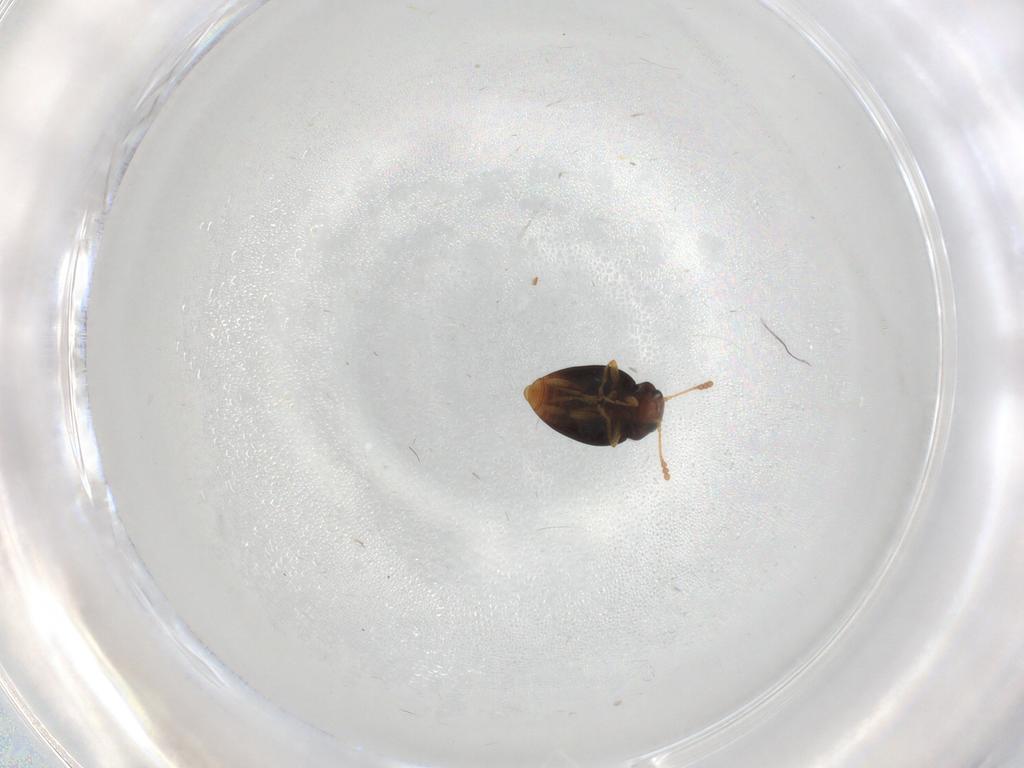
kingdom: Animalia
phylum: Arthropoda
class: Insecta
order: Coleoptera
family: Erotylidae
